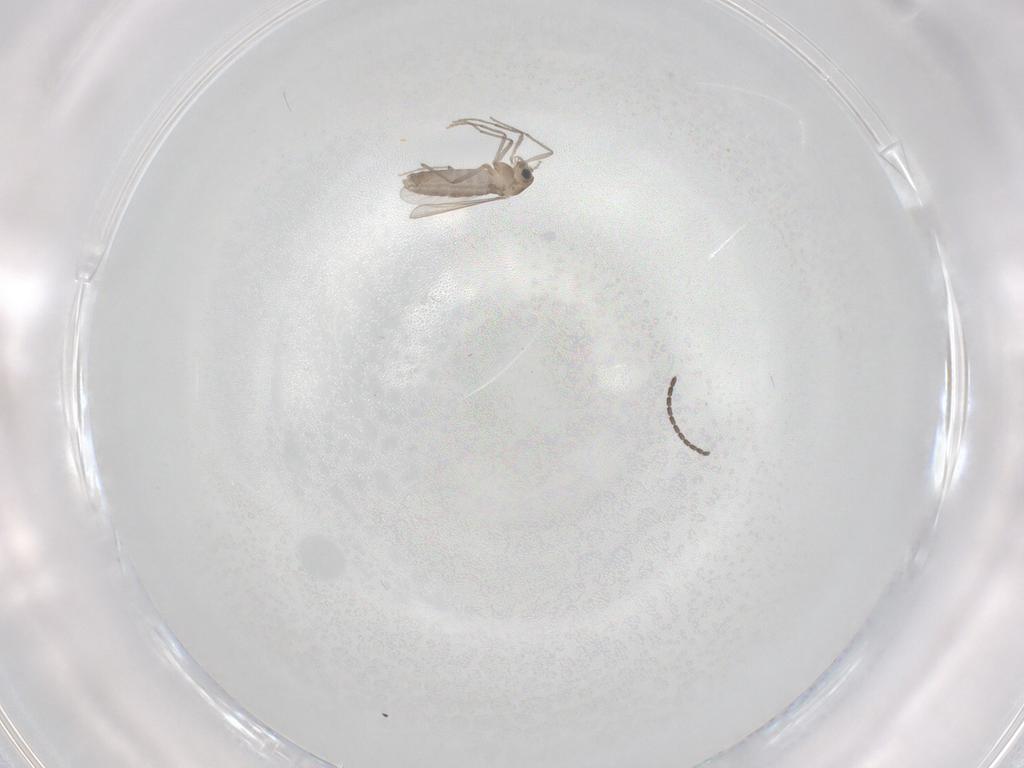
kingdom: Animalia
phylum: Arthropoda
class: Insecta
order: Diptera
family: Chironomidae
